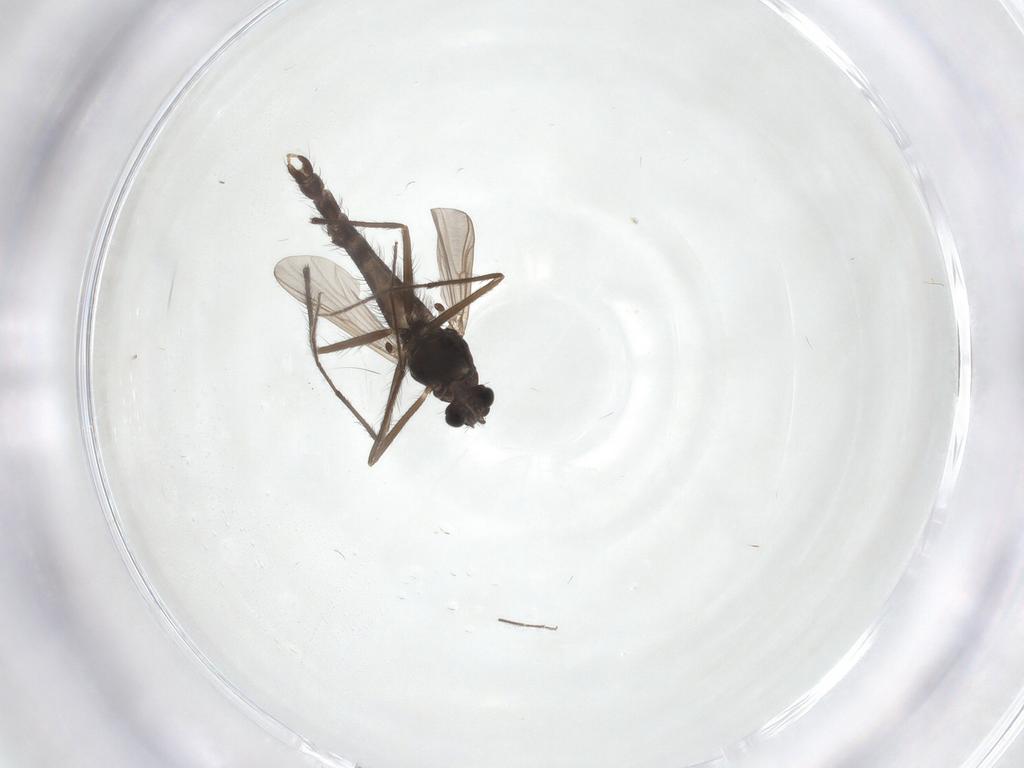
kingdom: Animalia
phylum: Arthropoda
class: Insecta
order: Diptera
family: Chironomidae
